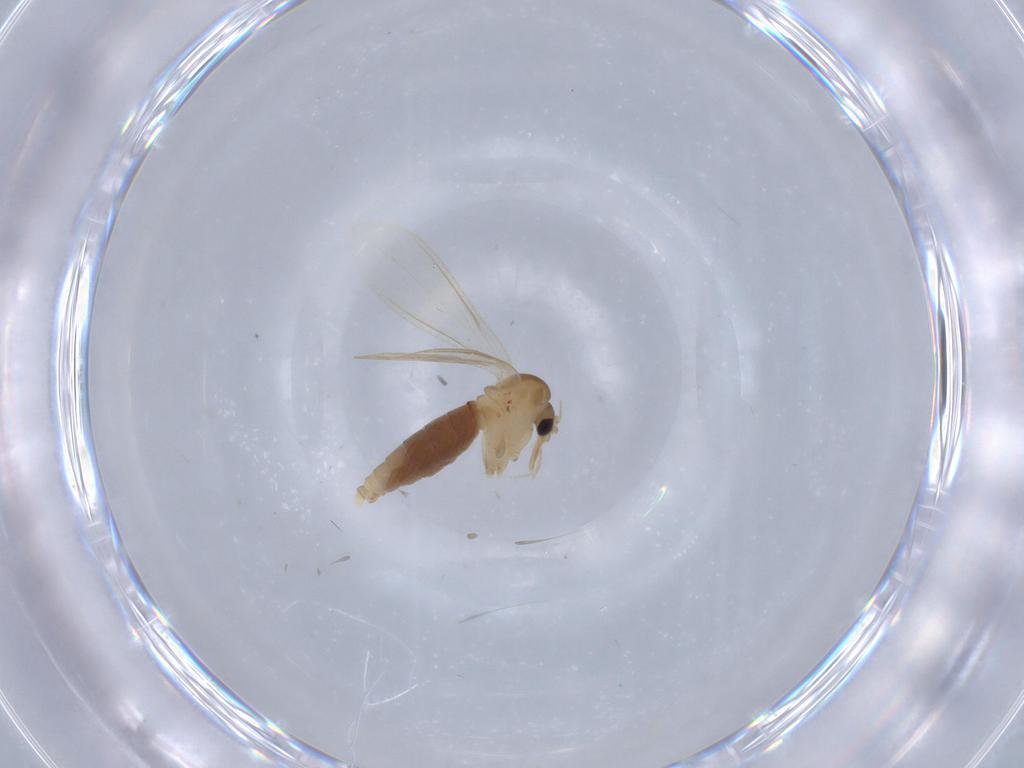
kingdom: Animalia
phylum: Arthropoda
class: Insecta
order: Diptera
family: Psychodidae
